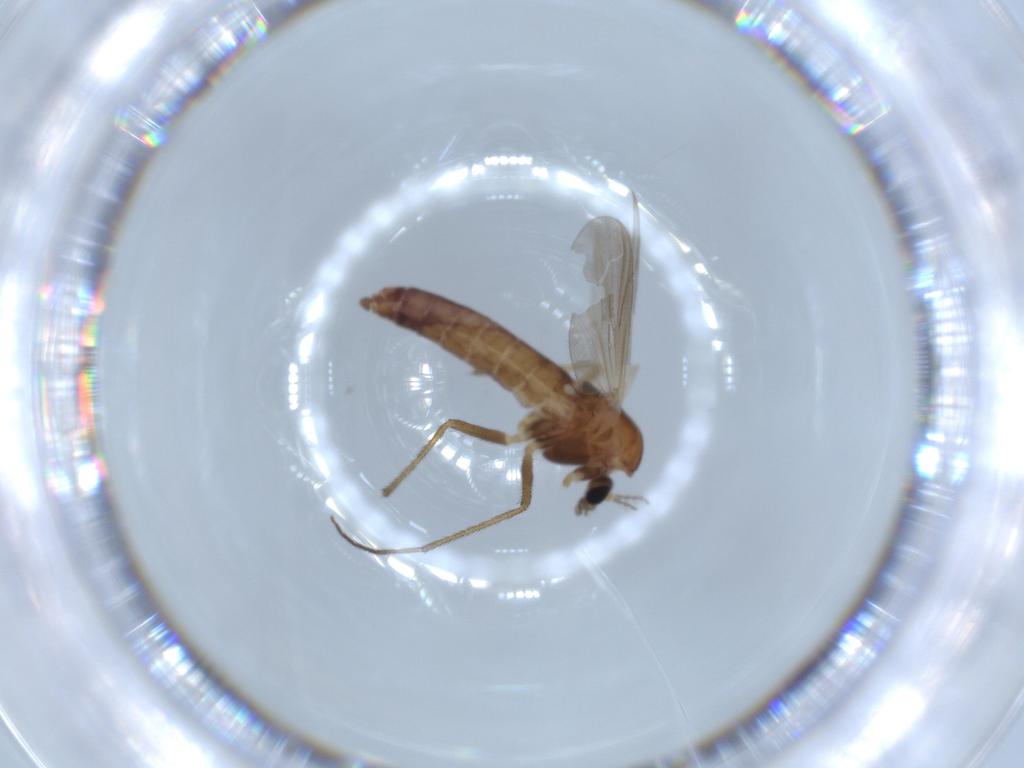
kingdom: Animalia
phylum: Arthropoda
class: Insecta
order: Diptera
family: Chironomidae
